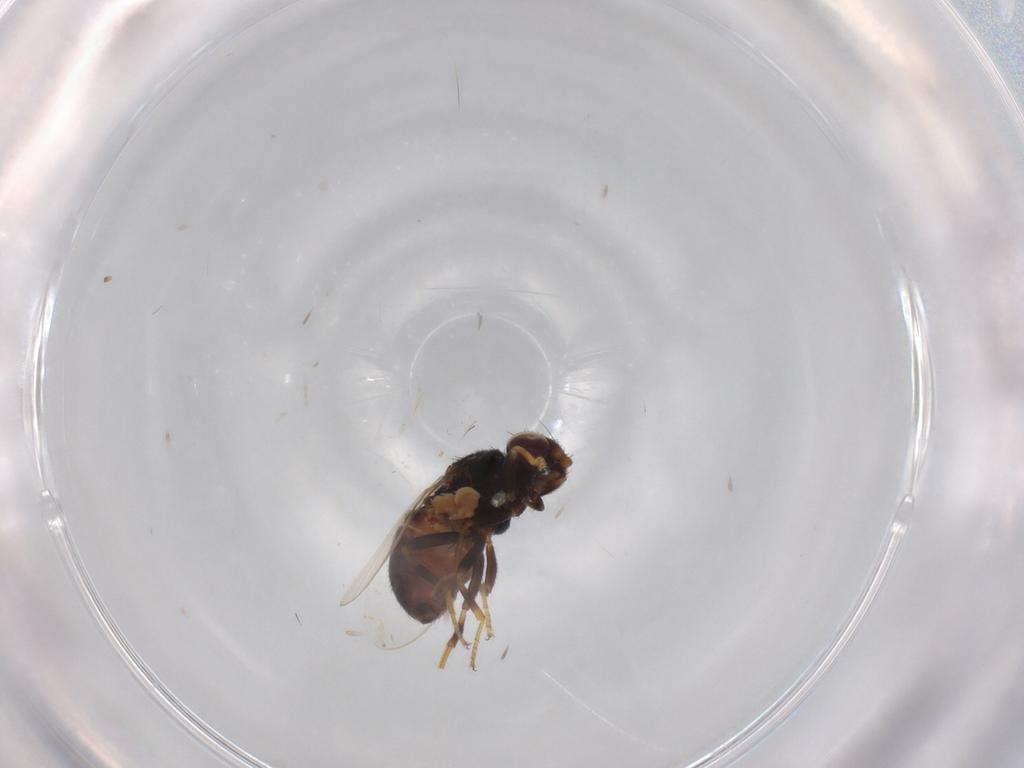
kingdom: Animalia
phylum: Arthropoda
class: Insecta
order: Diptera
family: Chloropidae
